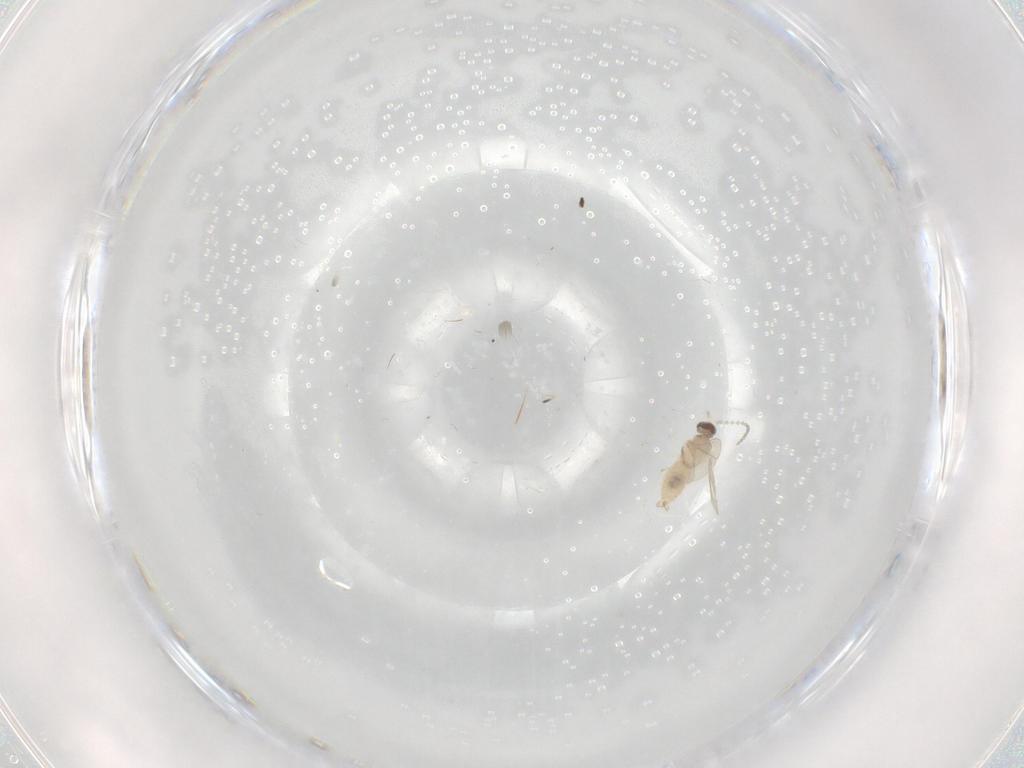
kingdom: Animalia
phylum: Arthropoda
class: Insecta
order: Diptera
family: Cecidomyiidae
